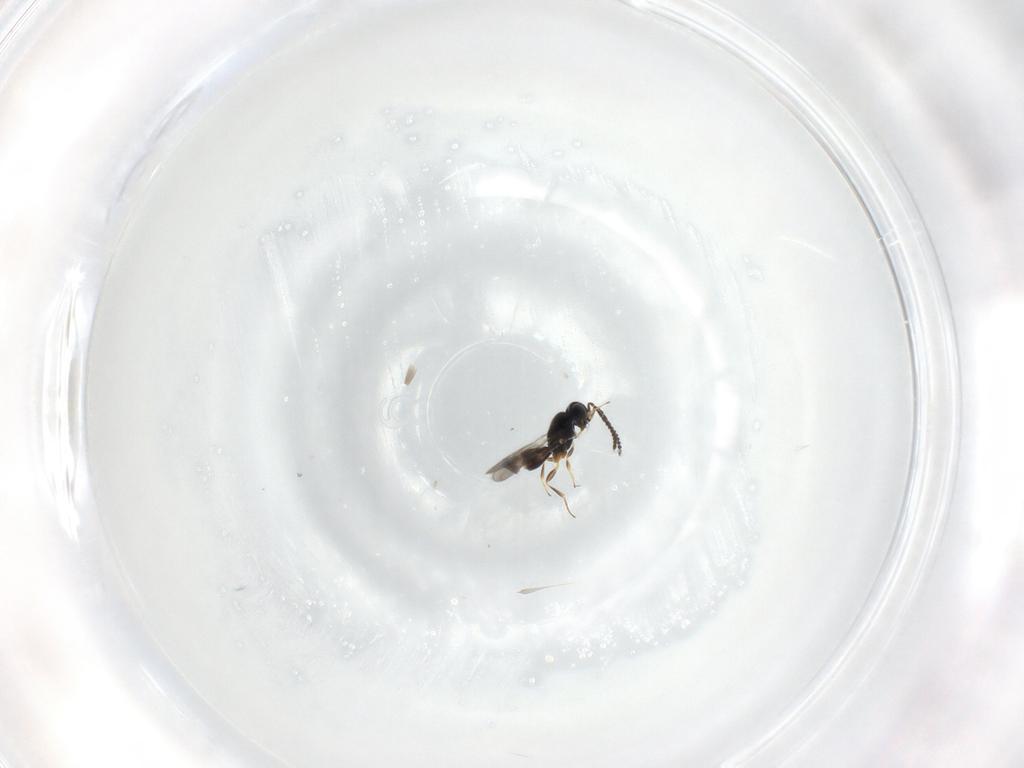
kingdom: Animalia
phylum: Arthropoda
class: Insecta
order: Hymenoptera
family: Scelionidae
